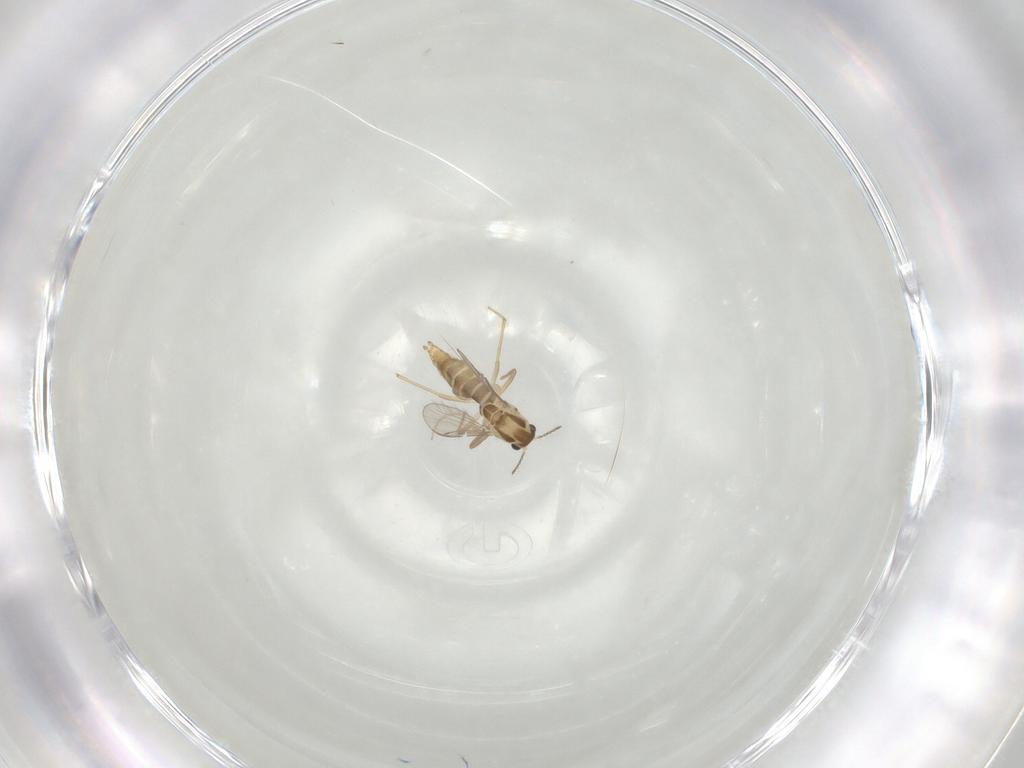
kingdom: Animalia
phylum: Arthropoda
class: Insecta
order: Diptera
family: Chironomidae
